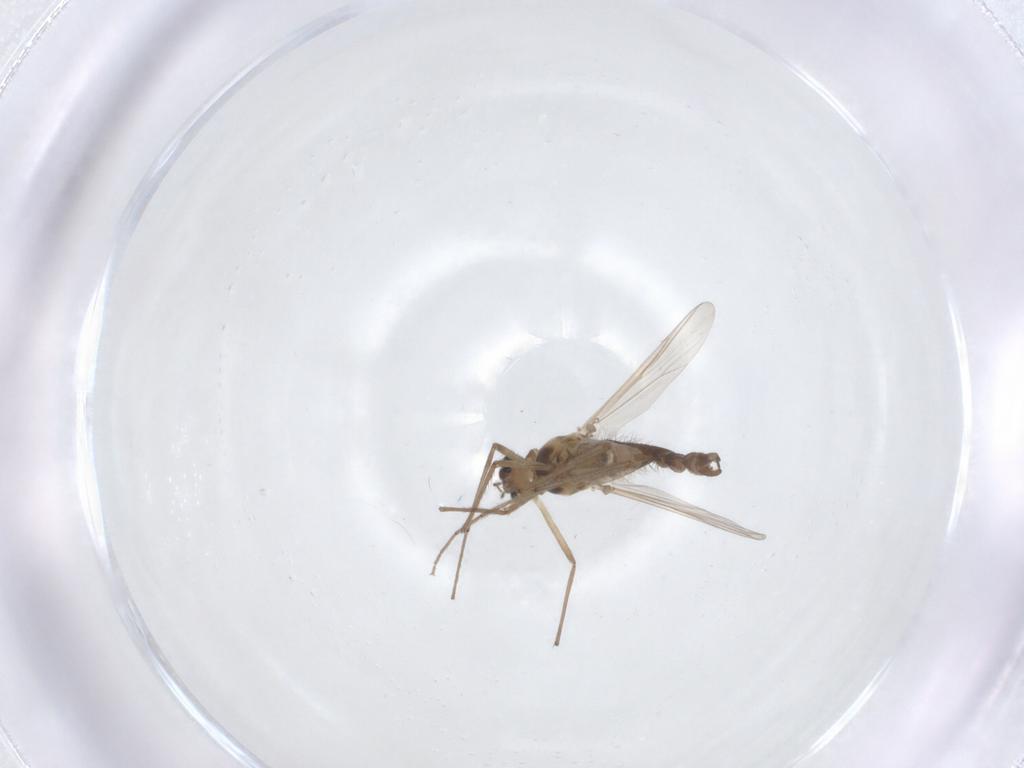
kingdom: Animalia
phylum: Arthropoda
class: Insecta
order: Diptera
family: Chironomidae
